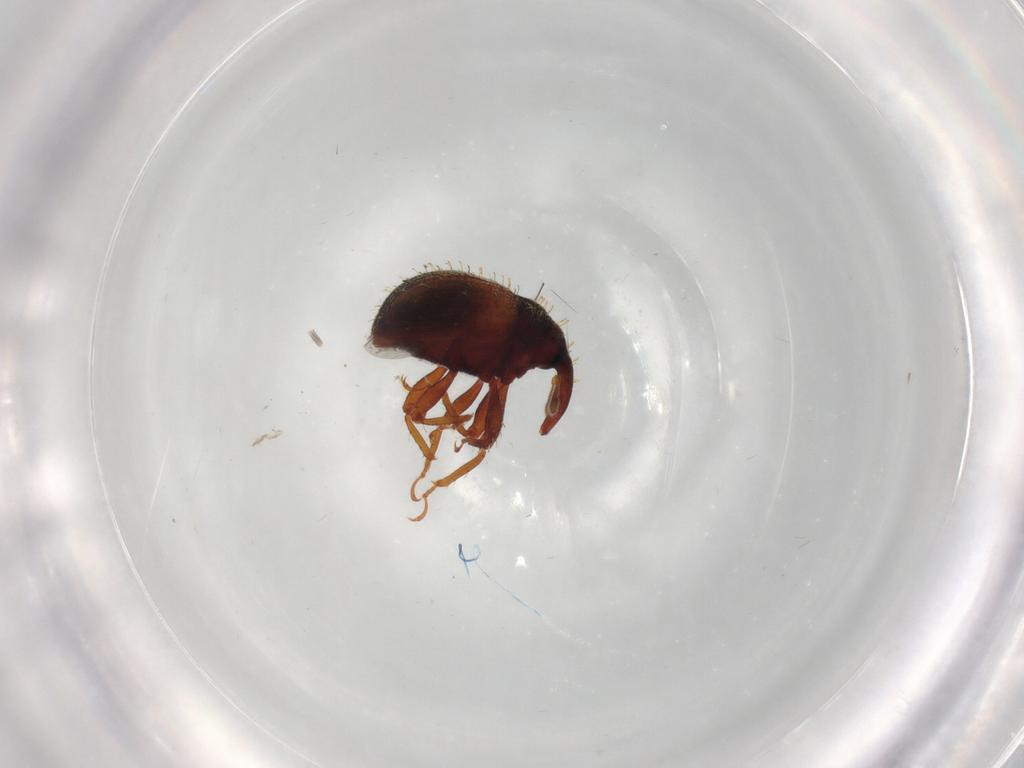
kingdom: Animalia
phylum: Arthropoda
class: Insecta
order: Coleoptera
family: Curculionidae
